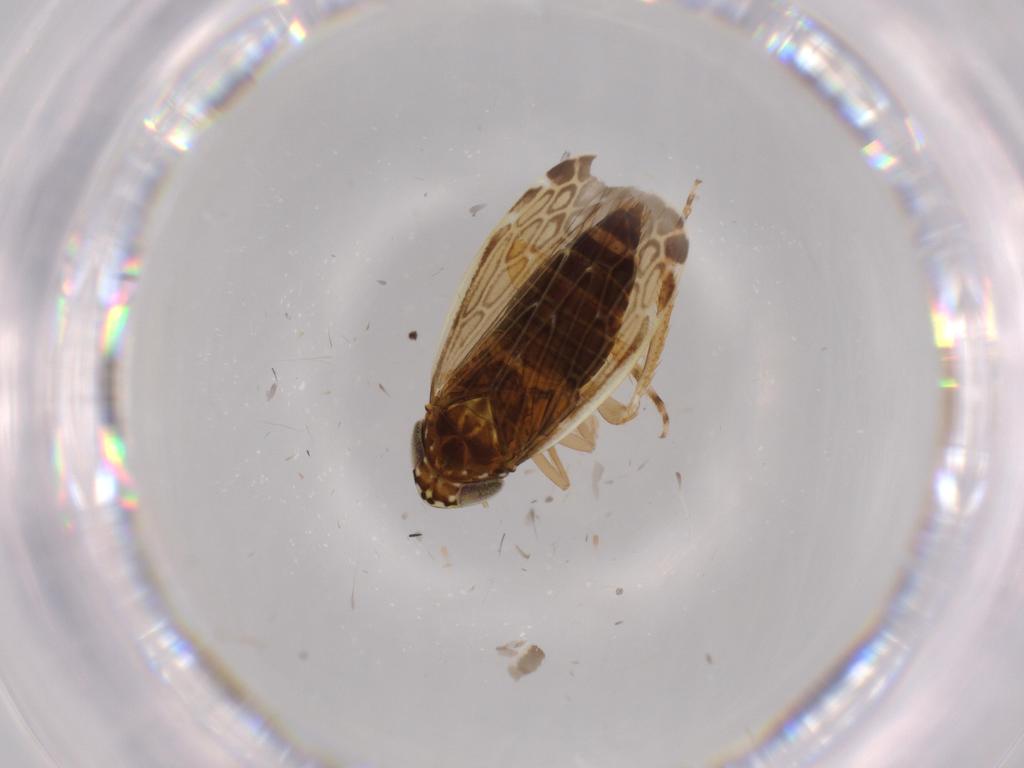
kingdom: Animalia
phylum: Arthropoda
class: Insecta
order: Hemiptera
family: Cicadellidae
